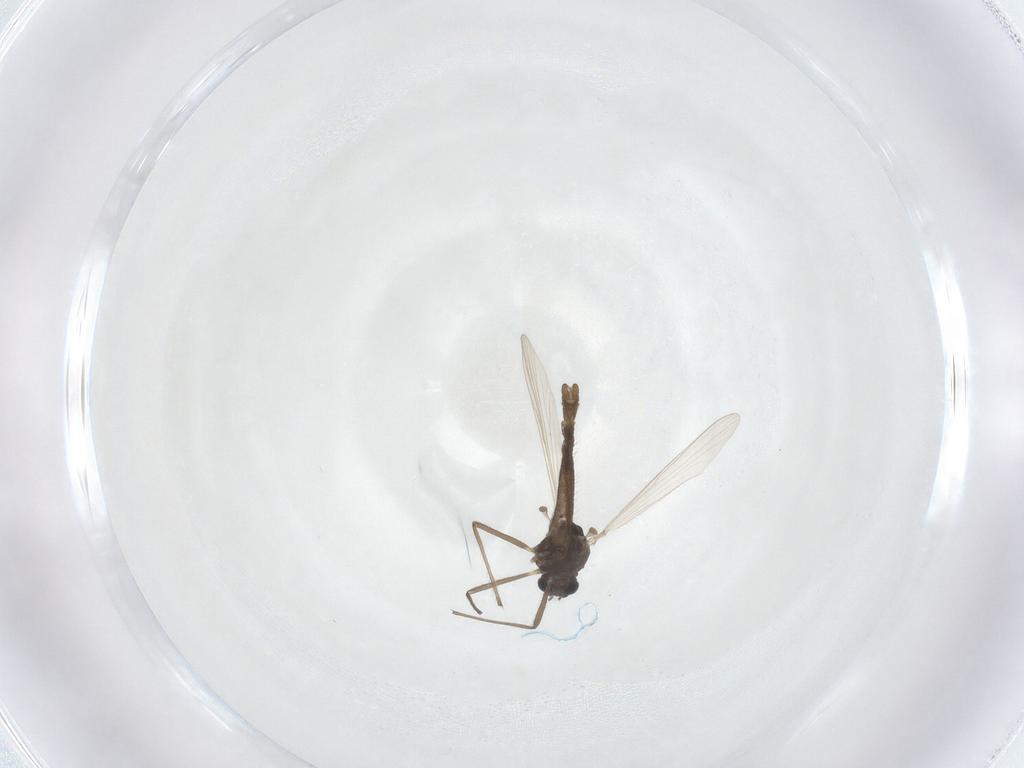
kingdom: Animalia
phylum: Arthropoda
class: Insecta
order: Diptera
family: Chironomidae
